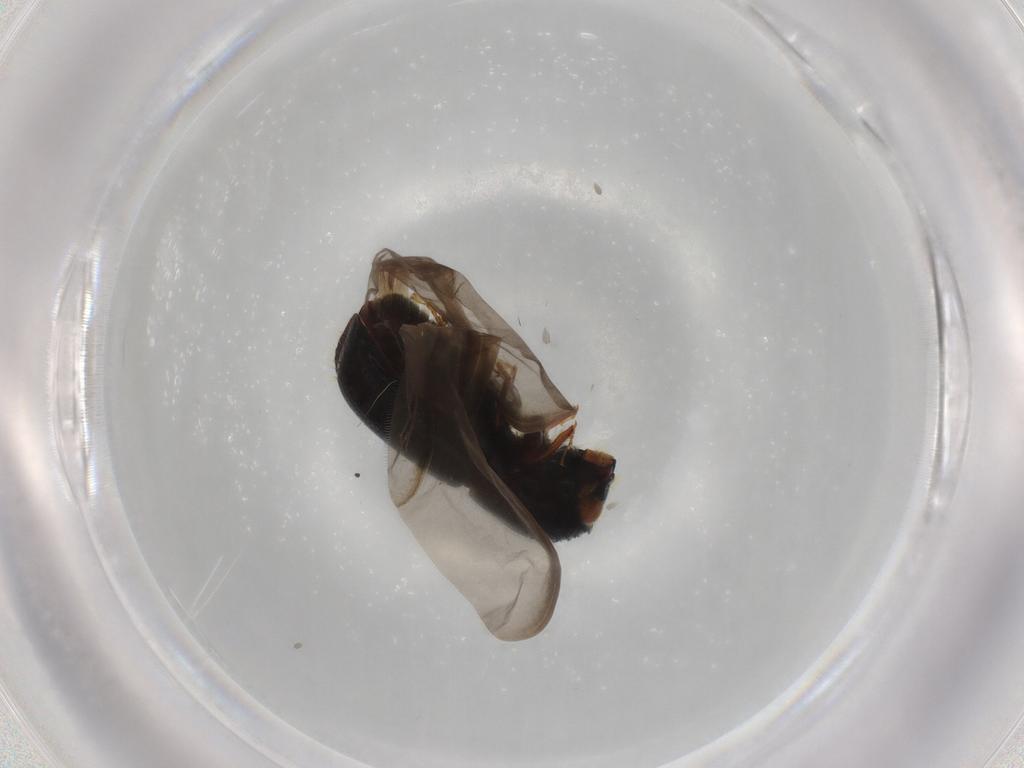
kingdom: Animalia
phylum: Arthropoda
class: Insecta
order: Coleoptera
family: Curculionidae
